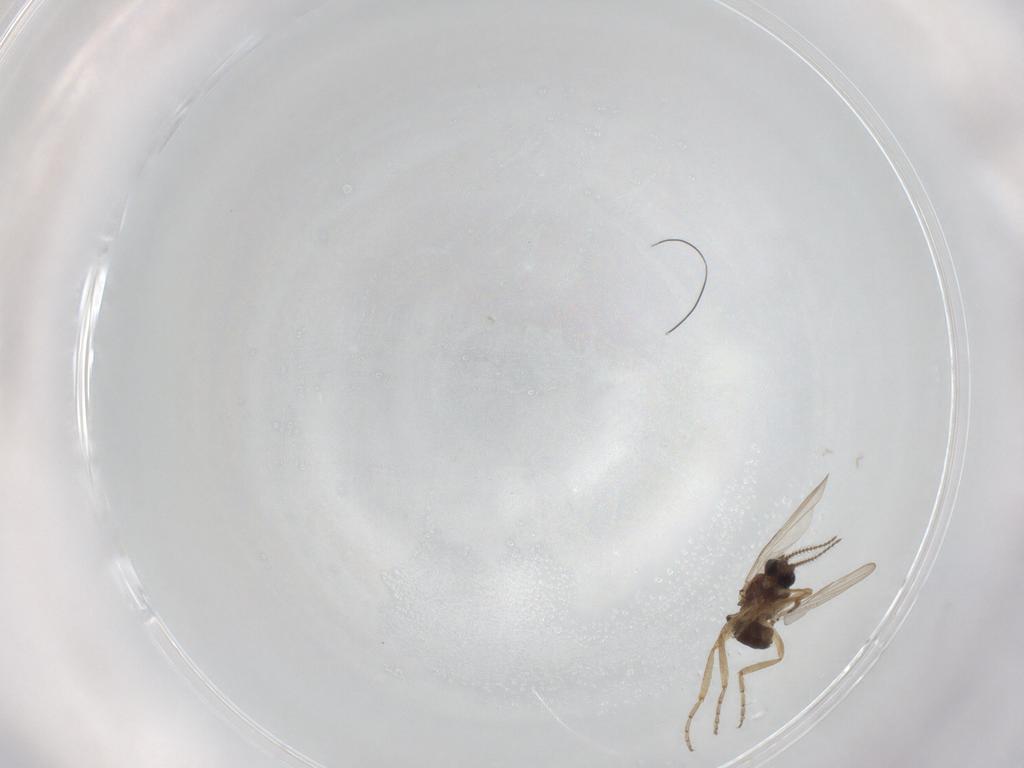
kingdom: Animalia
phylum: Arthropoda
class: Insecta
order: Diptera
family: Ceratopogonidae
